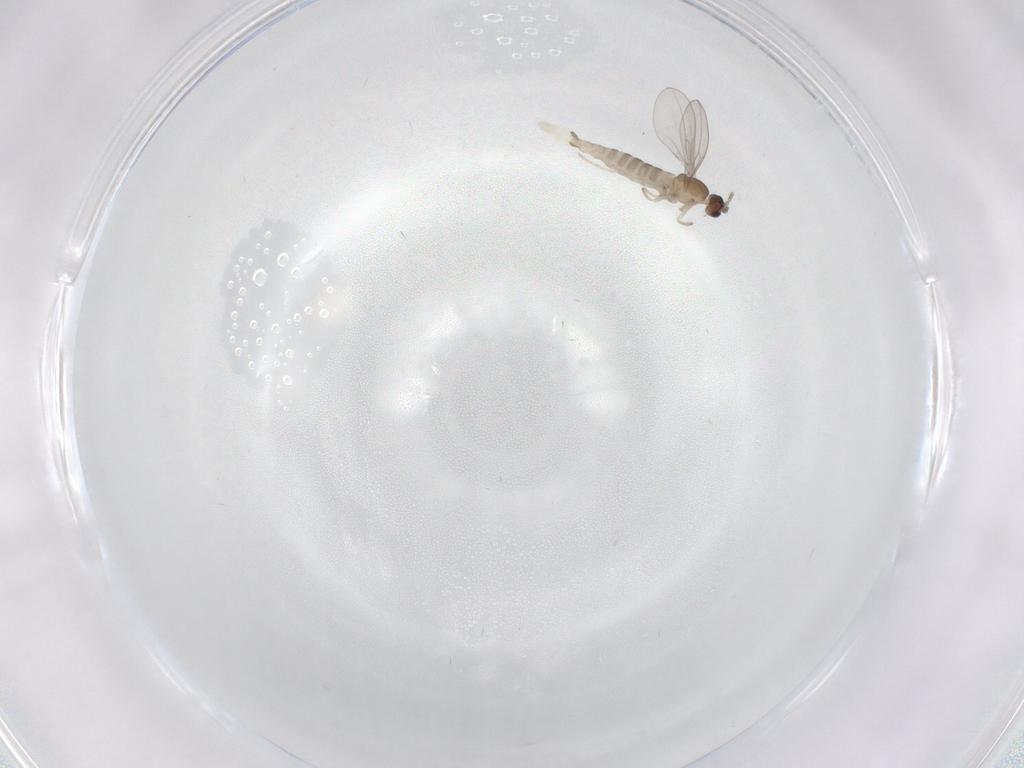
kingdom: Animalia
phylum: Arthropoda
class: Insecta
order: Diptera
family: Cecidomyiidae
